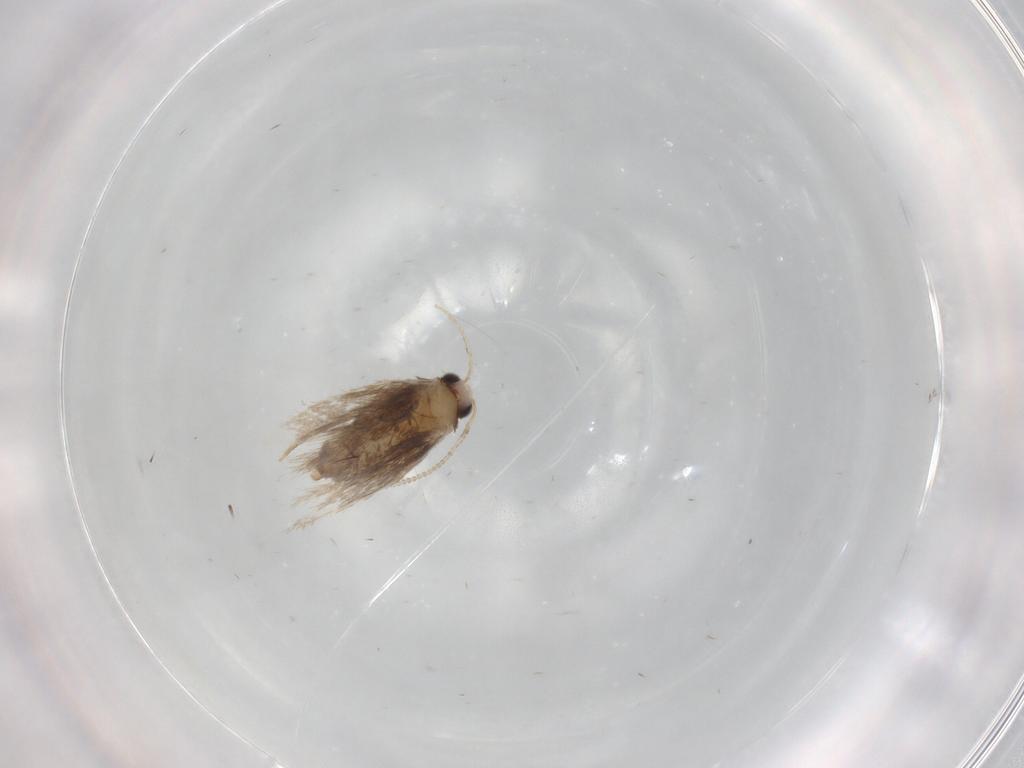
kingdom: Animalia
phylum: Arthropoda
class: Insecta
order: Lepidoptera
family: Nepticulidae
